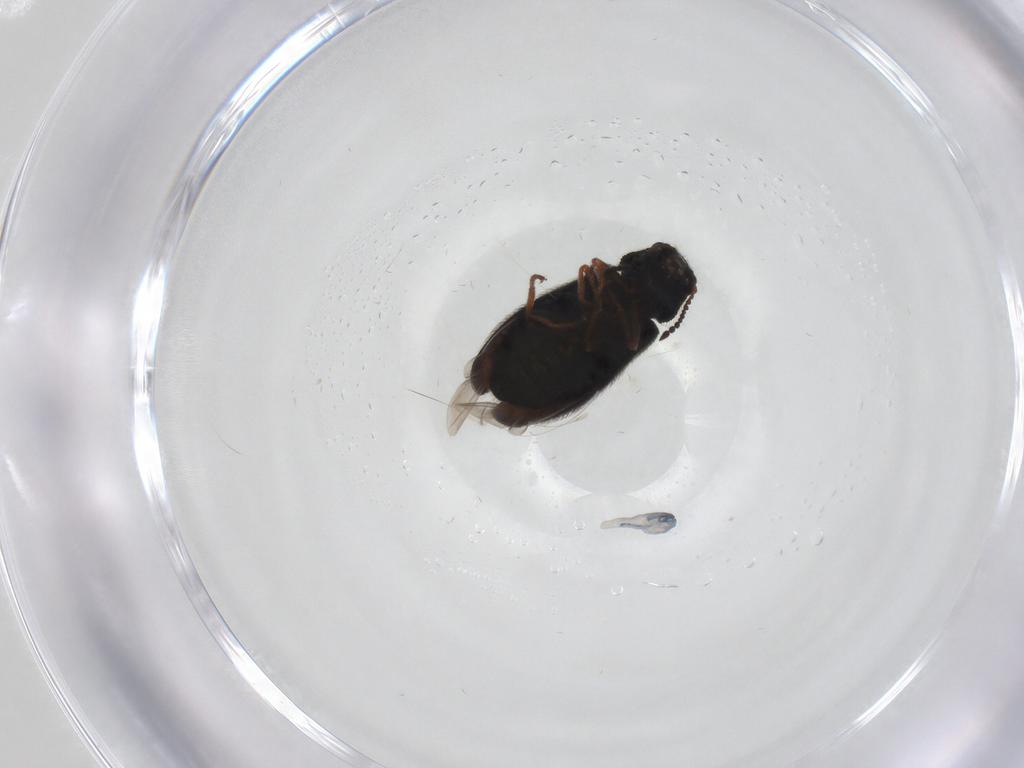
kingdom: Animalia
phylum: Arthropoda
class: Insecta
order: Coleoptera
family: Melyridae
